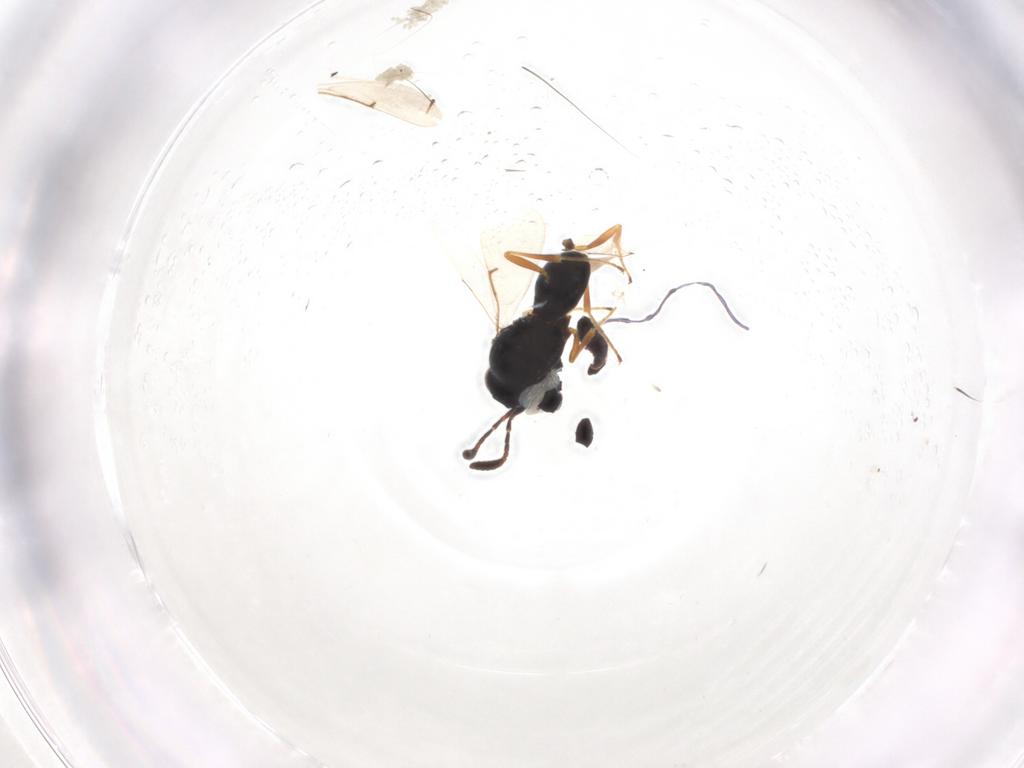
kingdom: Animalia
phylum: Arthropoda
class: Insecta
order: Hymenoptera
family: Scelionidae
